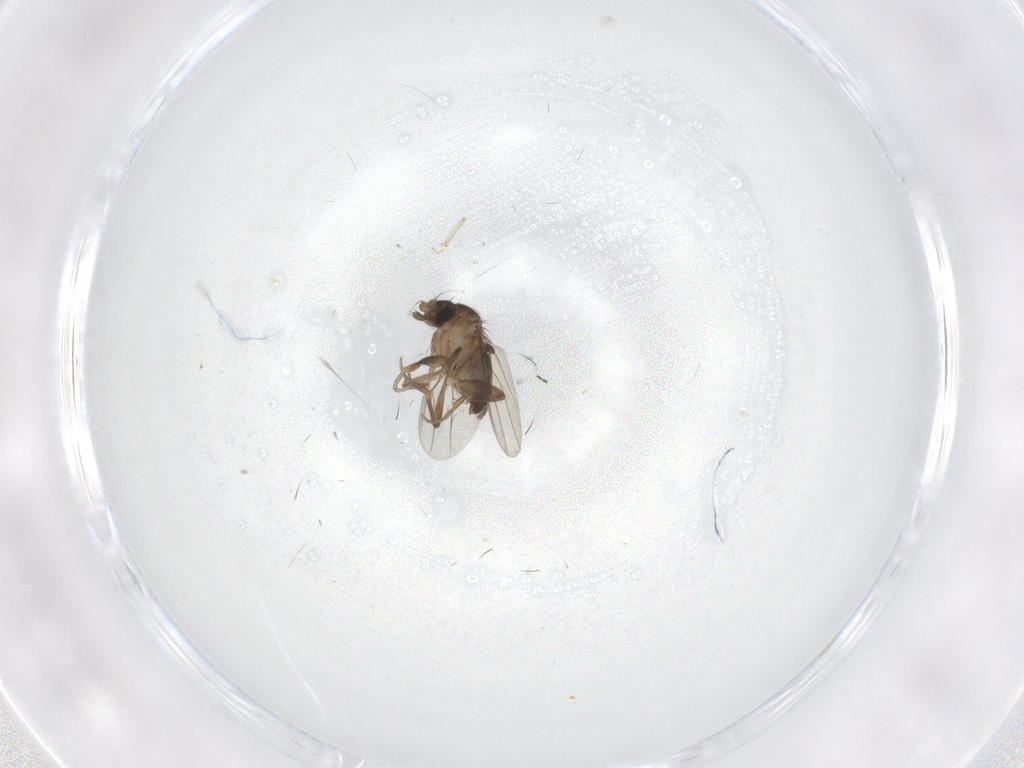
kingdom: Animalia
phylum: Arthropoda
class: Insecta
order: Diptera
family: Phoridae
